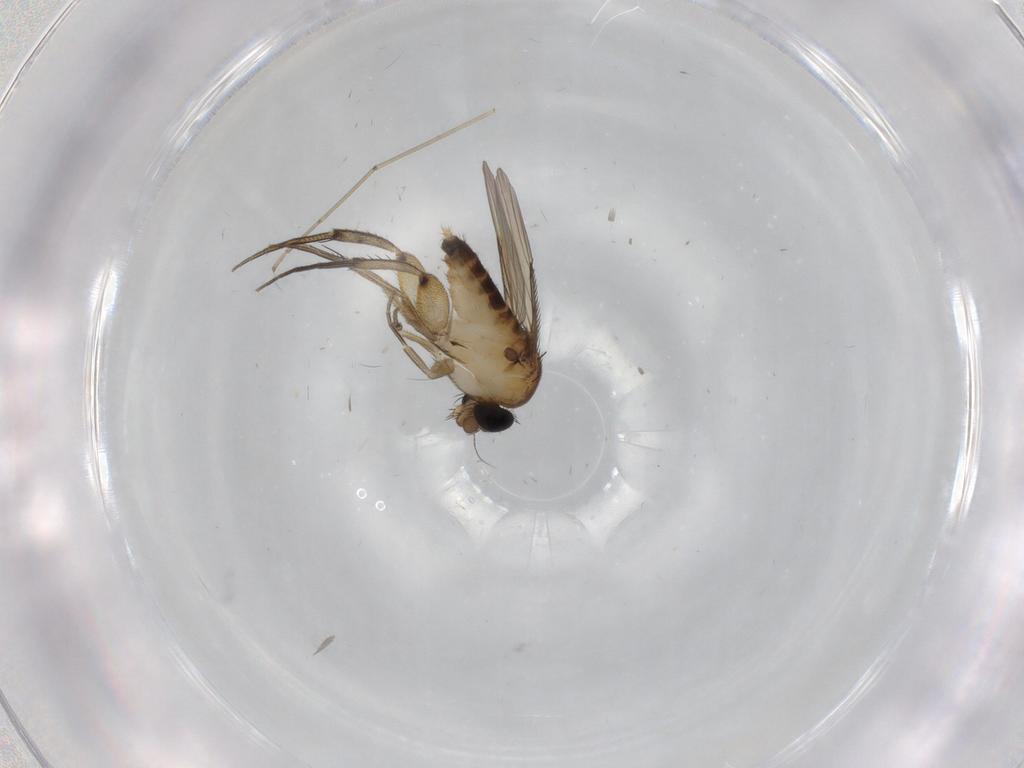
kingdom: Animalia
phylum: Arthropoda
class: Insecta
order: Diptera
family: Phoridae
